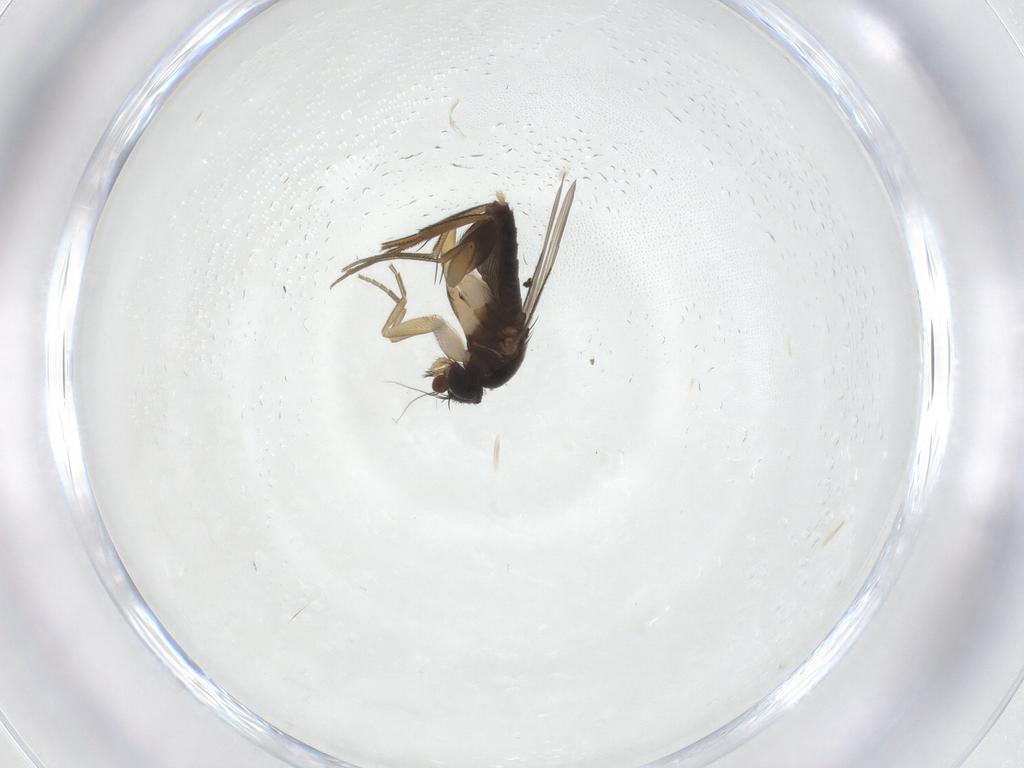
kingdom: Animalia
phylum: Arthropoda
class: Insecta
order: Diptera
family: Phoridae
